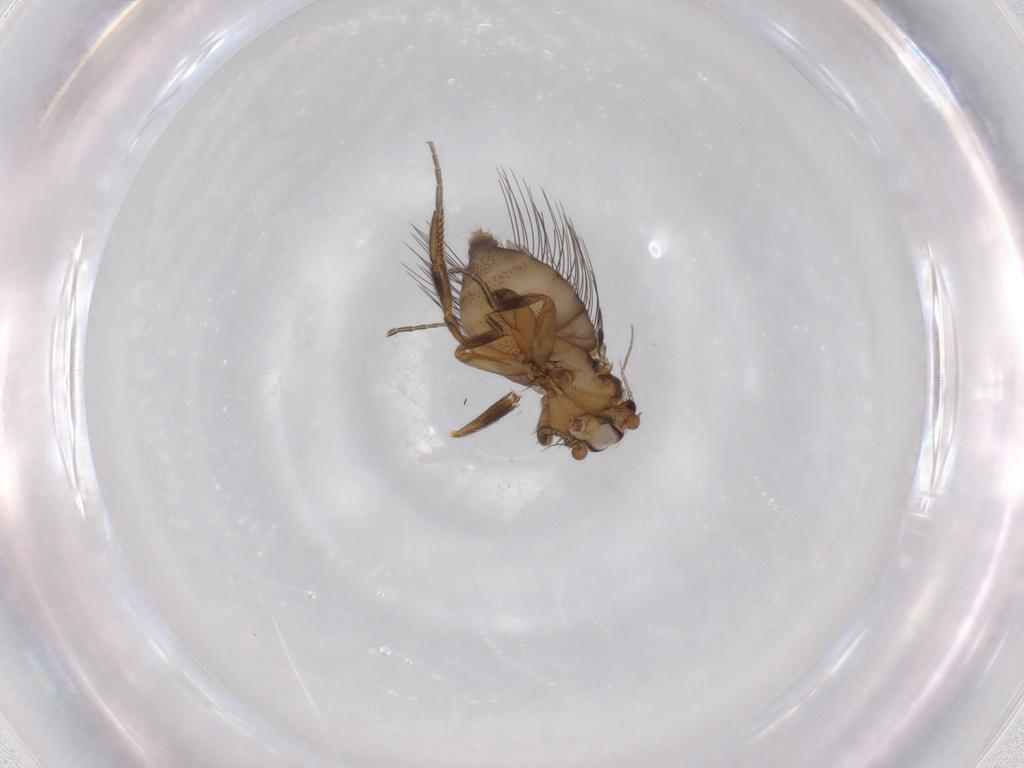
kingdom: Animalia
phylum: Arthropoda
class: Insecta
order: Diptera
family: Phoridae
